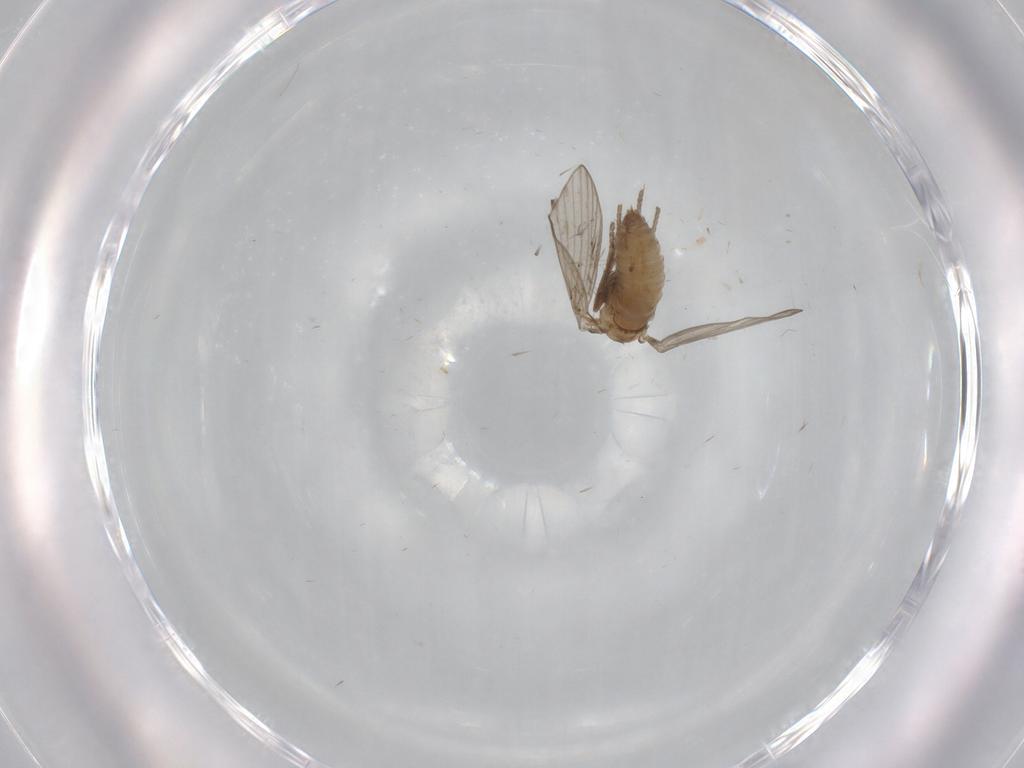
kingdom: Animalia
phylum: Arthropoda
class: Insecta
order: Diptera
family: Psychodidae
